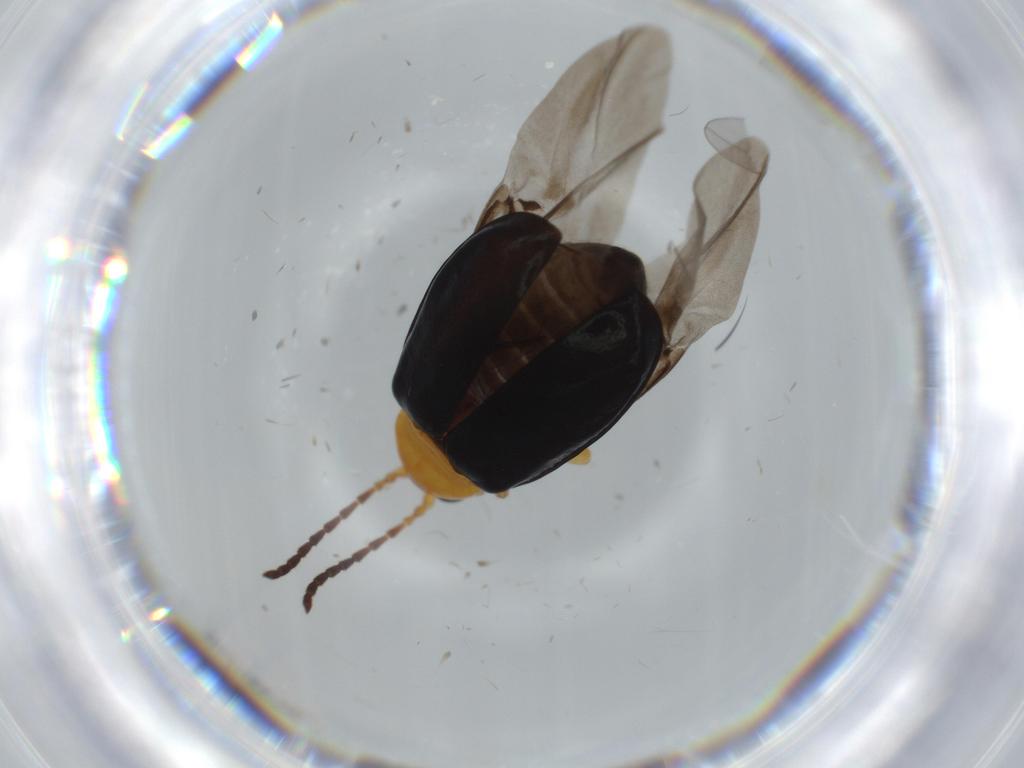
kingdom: Animalia
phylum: Arthropoda
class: Insecta
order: Coleoptera
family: Chrysomelidae
